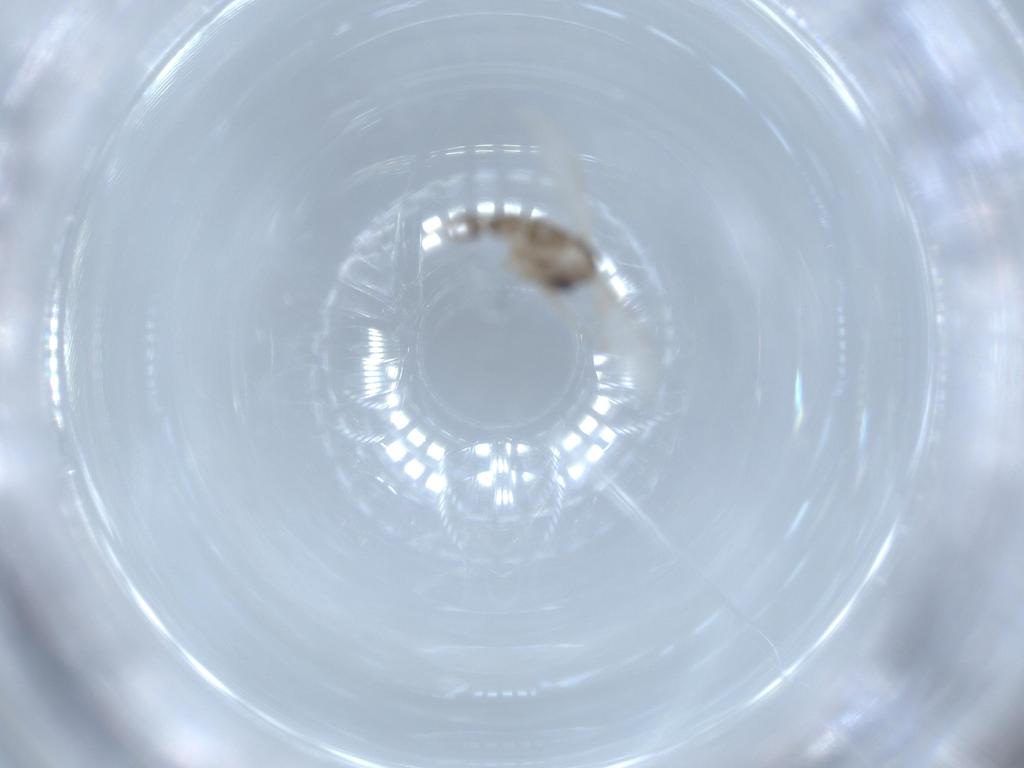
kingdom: Animalia
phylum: Arthropoda
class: Insecta
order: Diptera
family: Psychodidae
